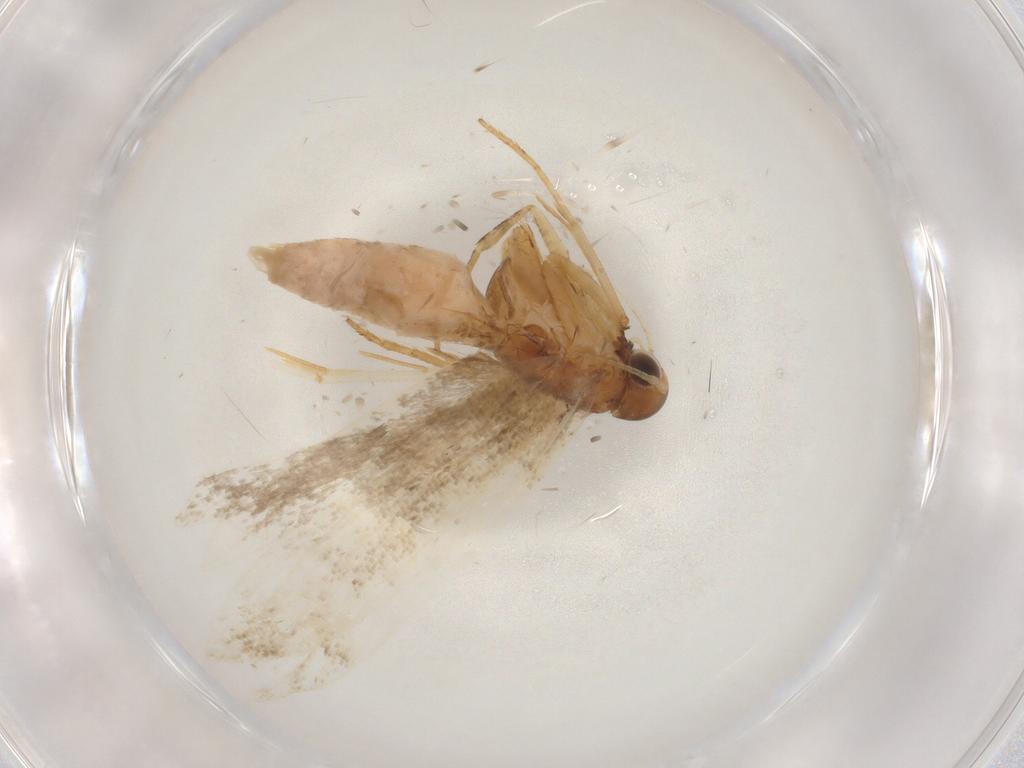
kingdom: Animalia
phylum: Arthropoda
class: Insecta
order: Lepidoptera
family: Gelechiidae
